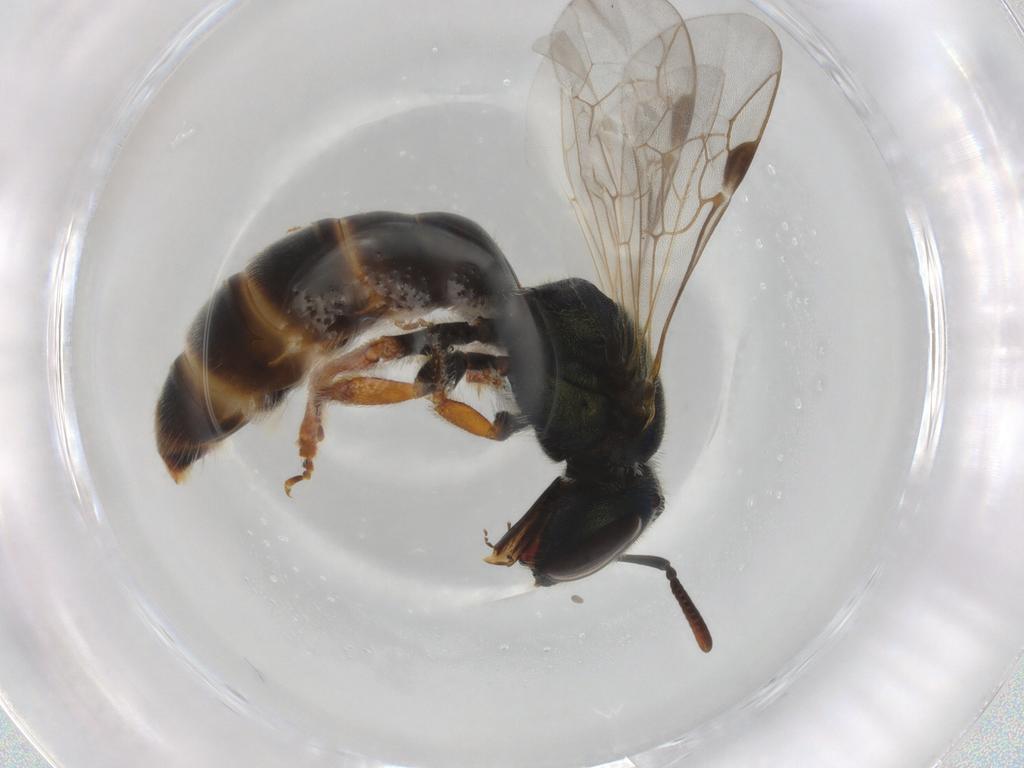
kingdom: Animalia
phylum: Arthropoda
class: Insecta
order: Hymenoptera
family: Halictidae
